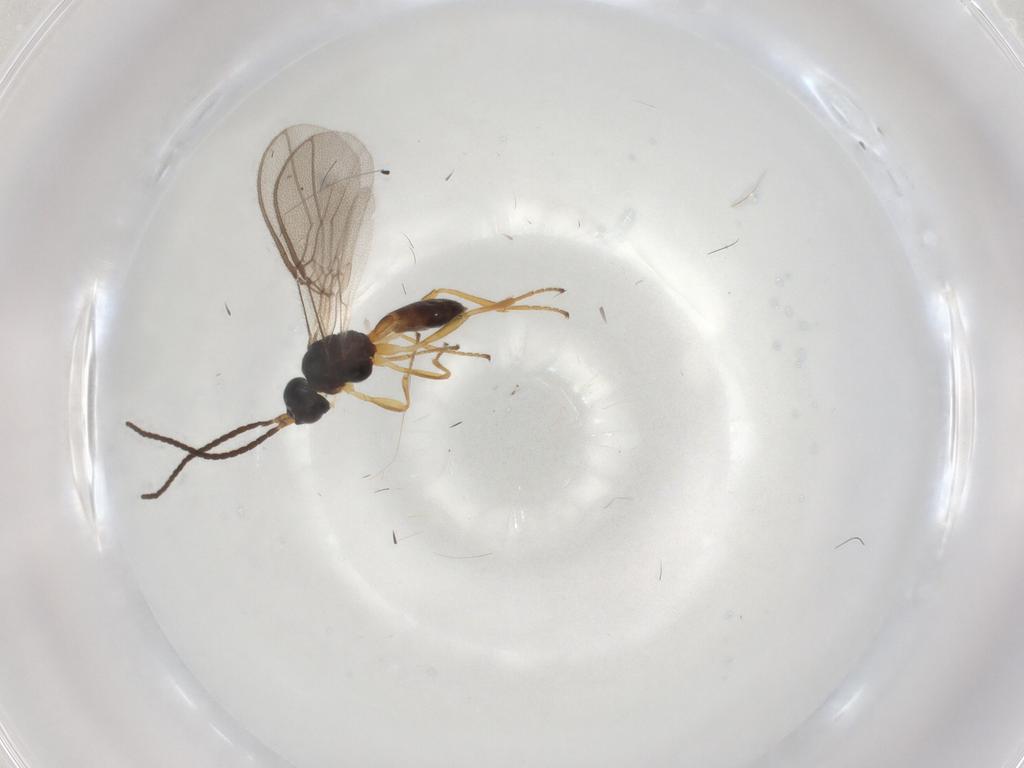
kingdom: Animalia
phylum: Arthropoda
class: Insecta
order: Hymenoptera
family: Braconidae
